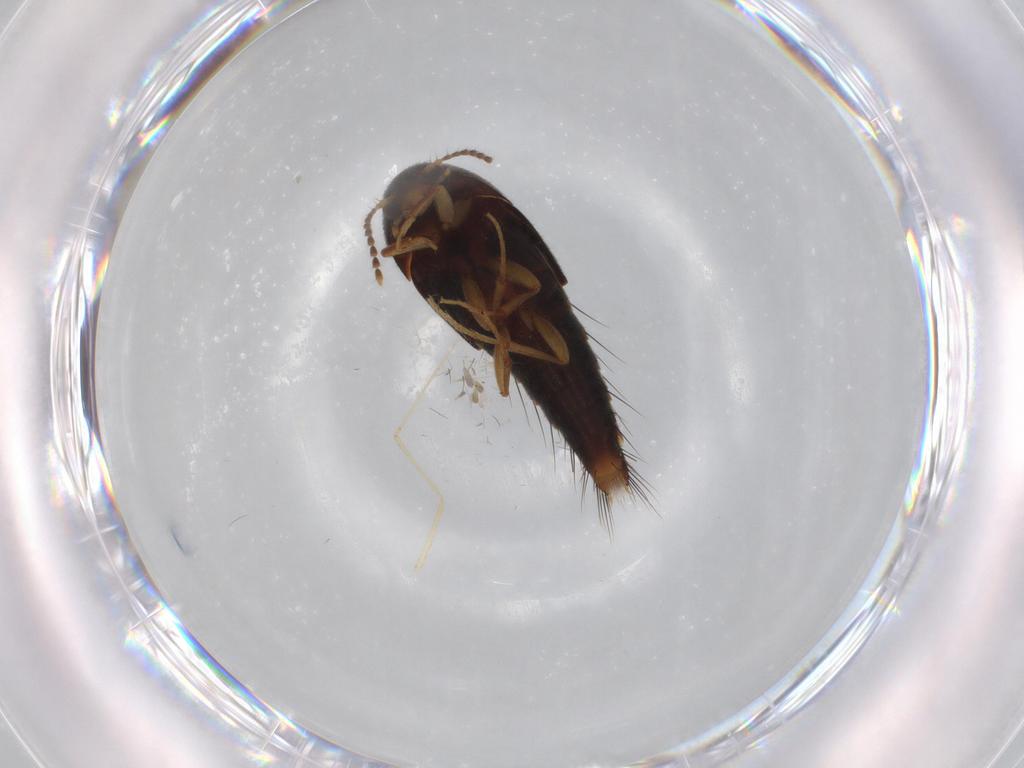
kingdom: Animalia
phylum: Arthropoda
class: Insecta
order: Coleoptera
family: Staphylinidae
